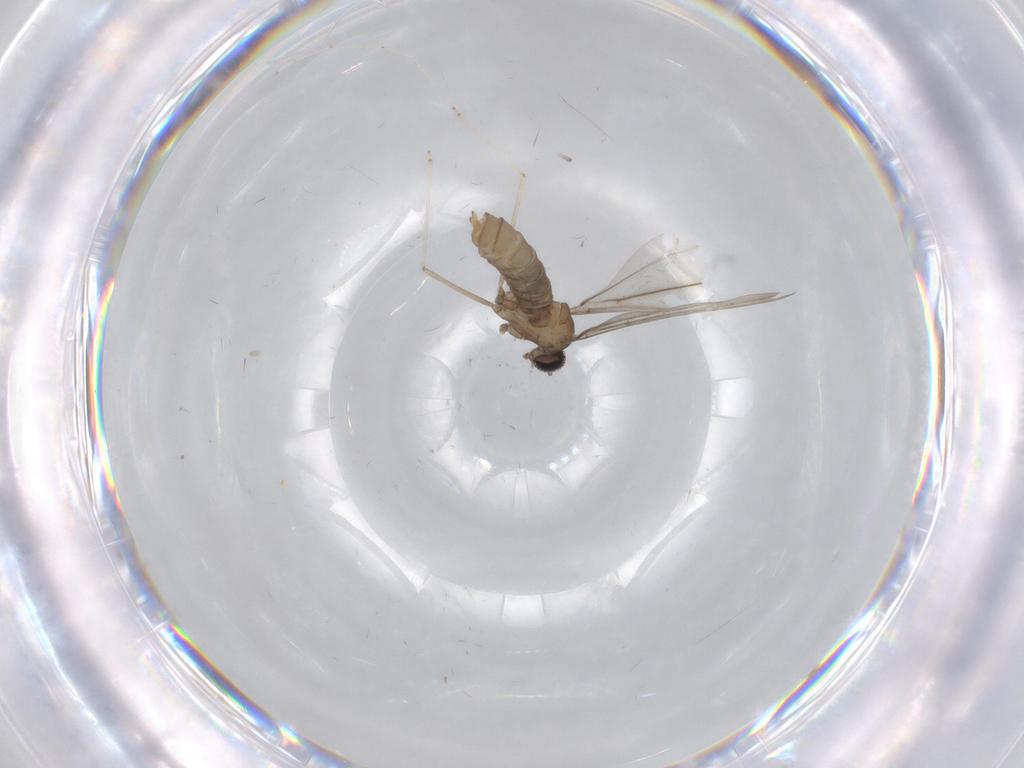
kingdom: Animalia
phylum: Arthropoda
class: Insecta
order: Diptera
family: Cecidomyiidae
